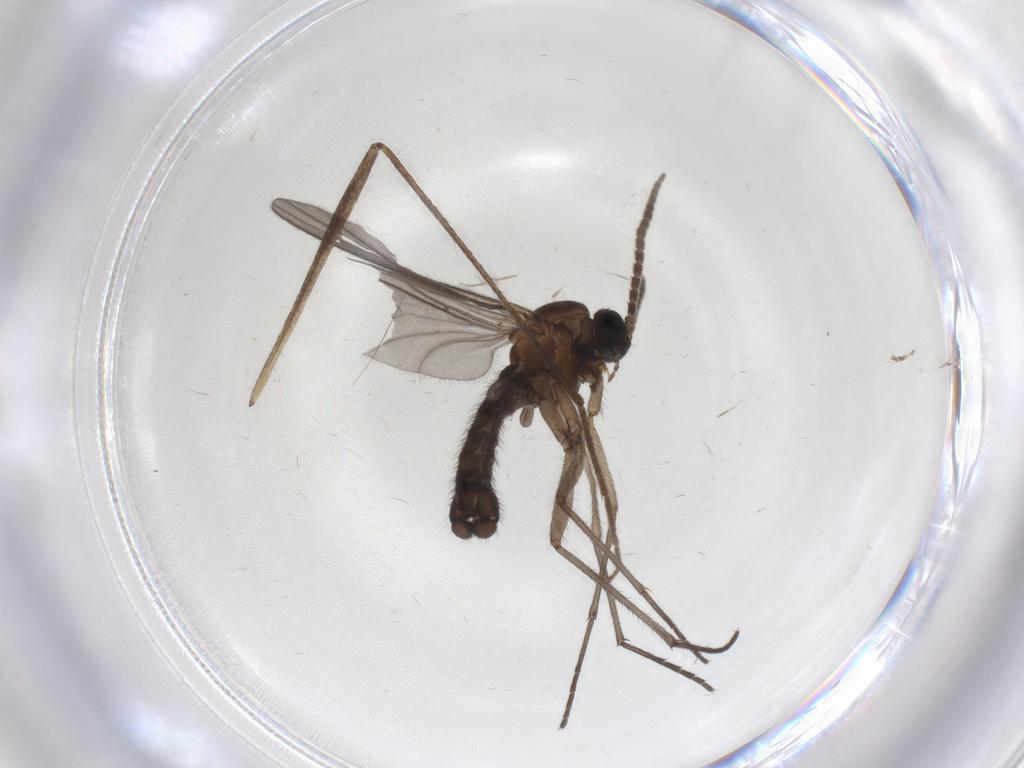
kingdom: Animalia
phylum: Arthropoda
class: Insecta
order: Diptera
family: Sciaridae
